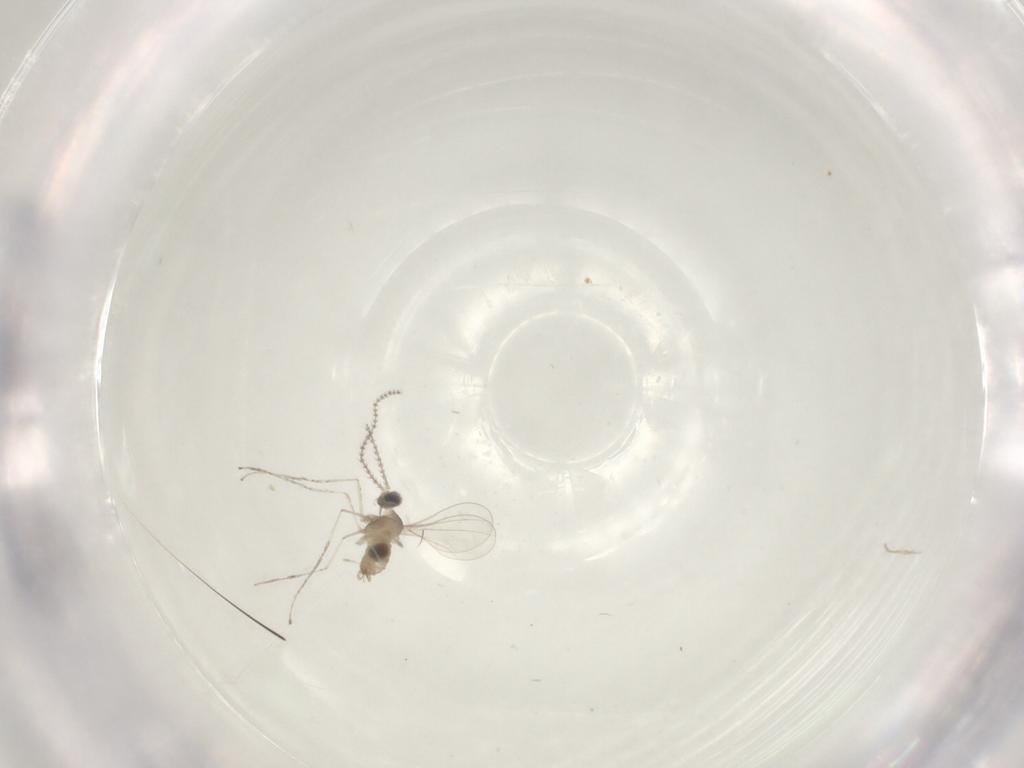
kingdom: Animalia
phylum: Arthropoda
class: Insecta
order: Diptera
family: Cecidomyiidae
